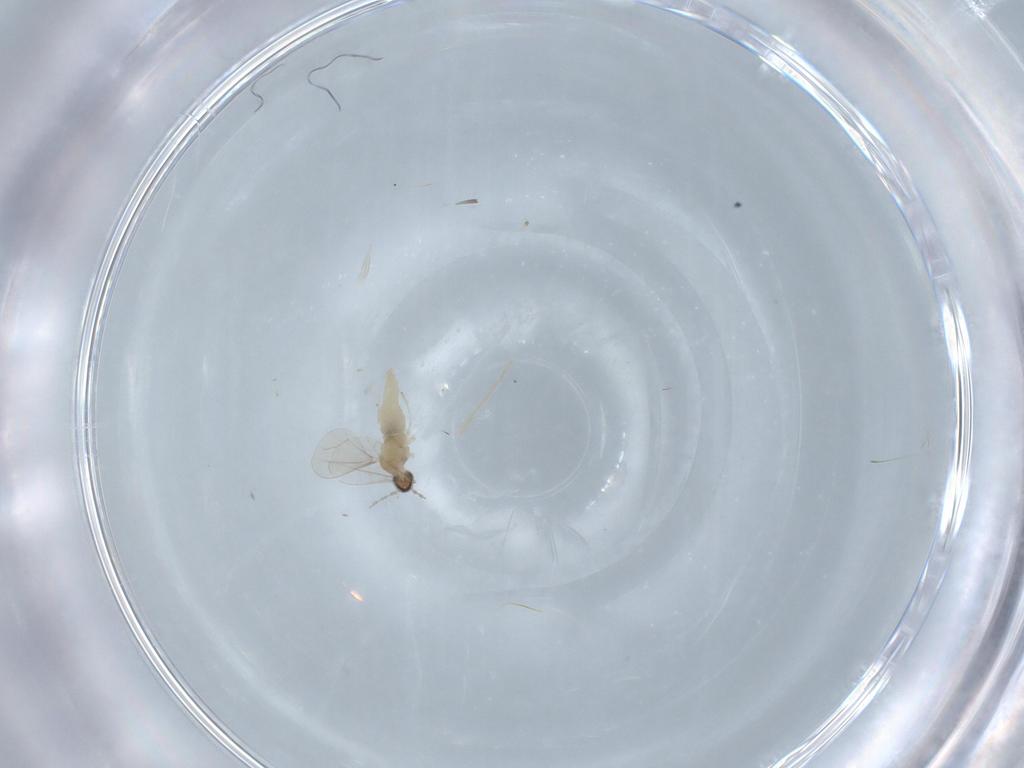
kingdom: Animalia
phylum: Arthropoda
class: Insecta
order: Diptera
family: Cecidomyiidae
